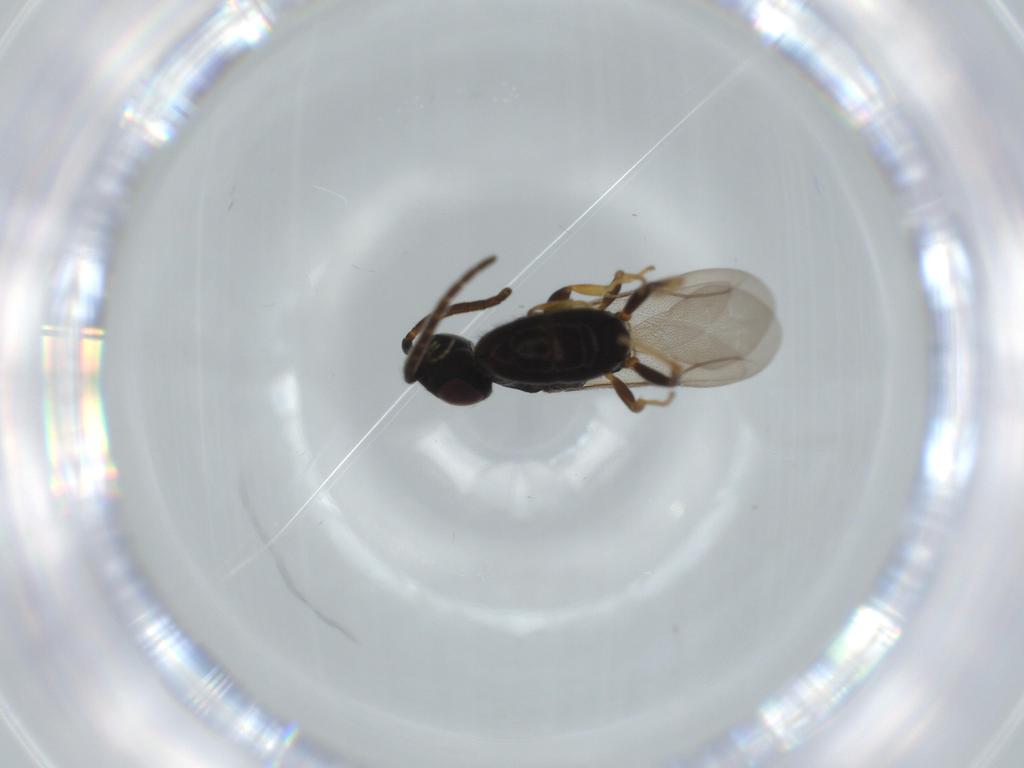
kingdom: Animalia
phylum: Arthropoda
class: Insecta
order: Hymenoptera
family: Bethylidae
